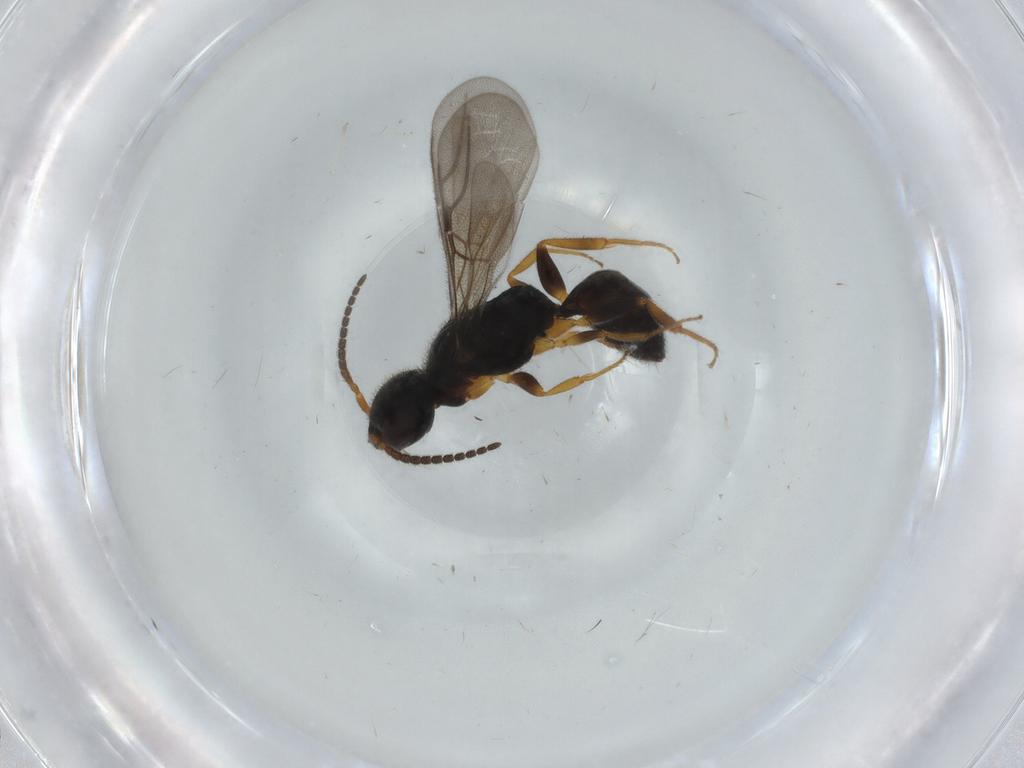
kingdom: Animalia
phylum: Arthropoda
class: Insecta
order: Hymenoptera
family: Bethylidae
